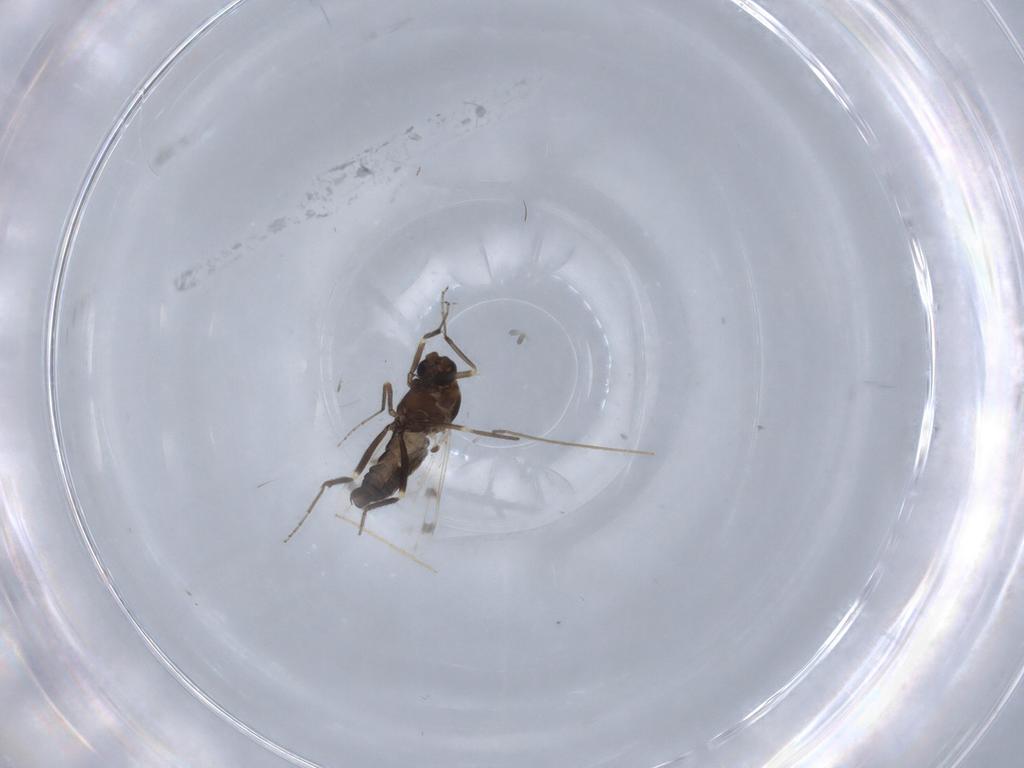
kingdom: Animalia
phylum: Arthropoda
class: Insecta
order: Diptera
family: Ceratopogonidae
